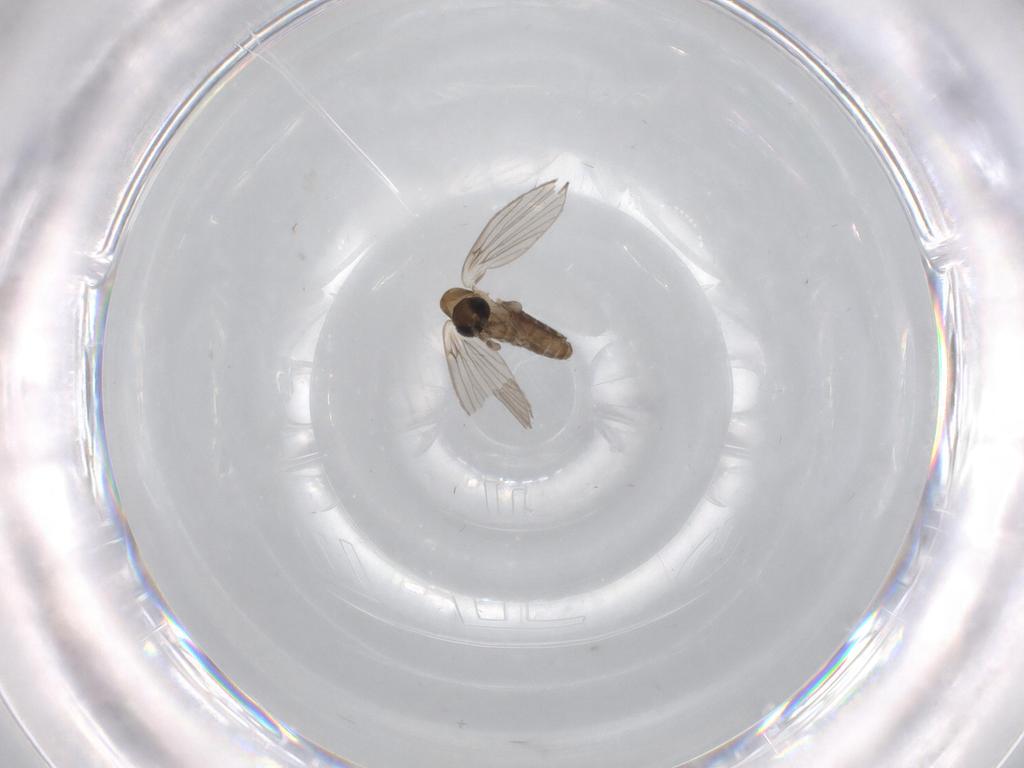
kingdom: Animalia
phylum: Arthropoda
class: Insecta
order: Diptera
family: Psychodidae
